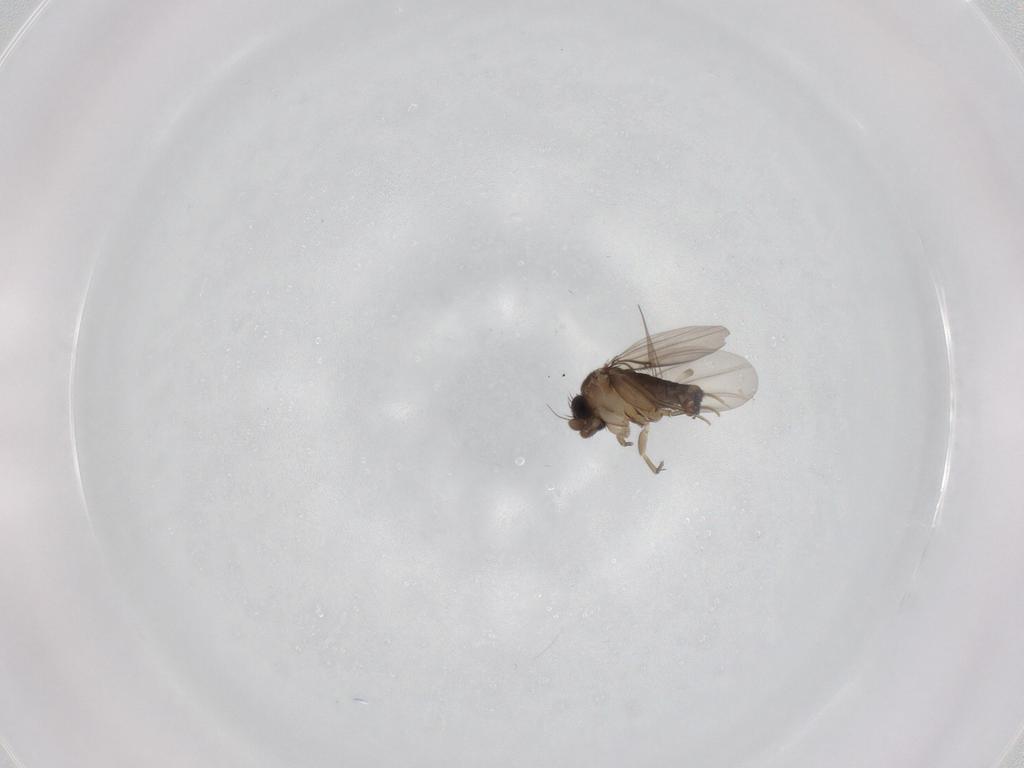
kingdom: Animalia
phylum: Arthropoda
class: Insecta
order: Diptera
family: Phoridae
